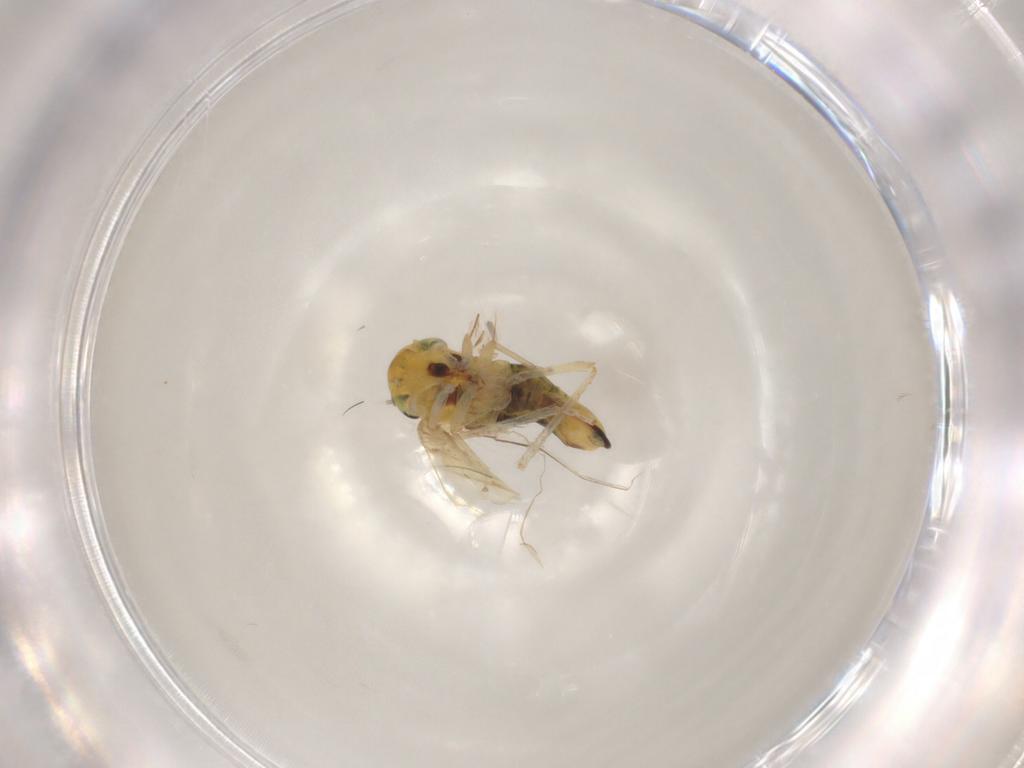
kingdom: Animalia
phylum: Arthropoda
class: Insecta
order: Hemiptera
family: Cicadellidae
